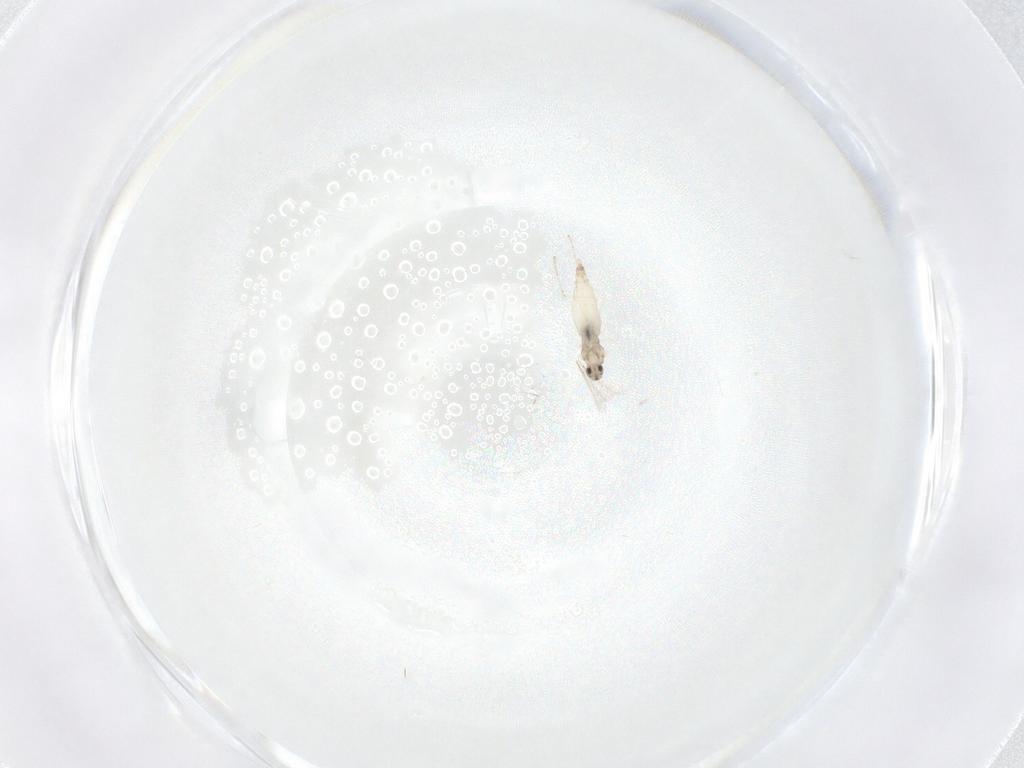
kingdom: Animalia
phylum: Arthropoda
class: Insecta
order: Diptera
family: Cecidomyiidae
